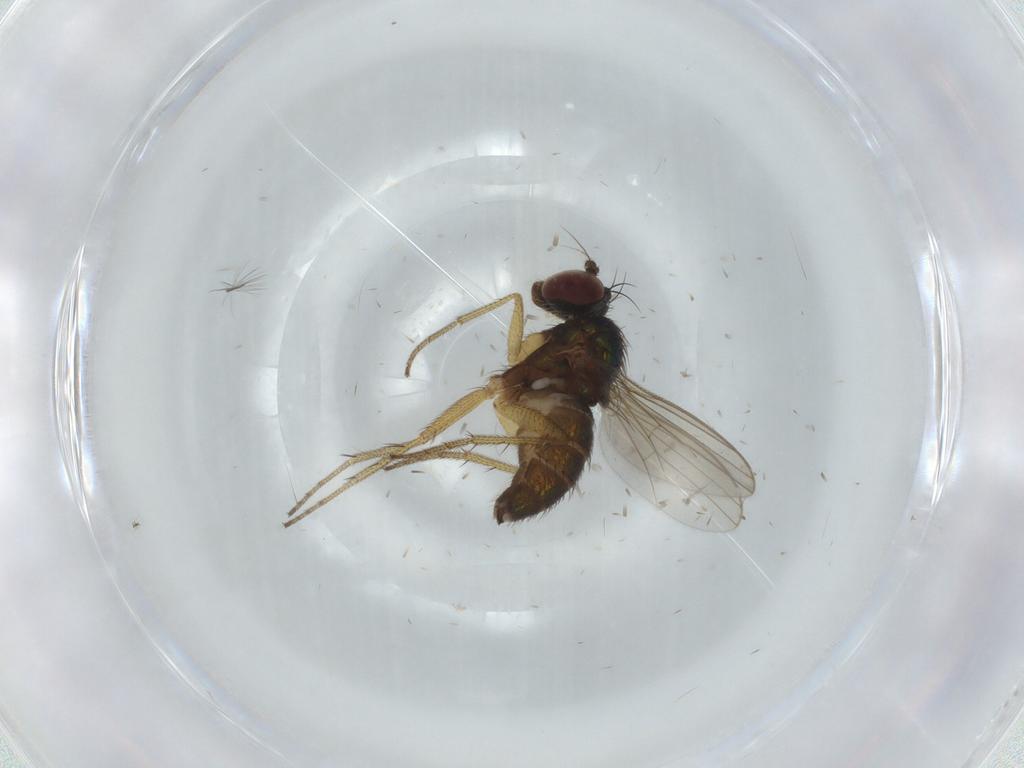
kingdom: Animalia
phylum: Arthropoda
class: Insecta
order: Diptera
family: Dolichopodidae
